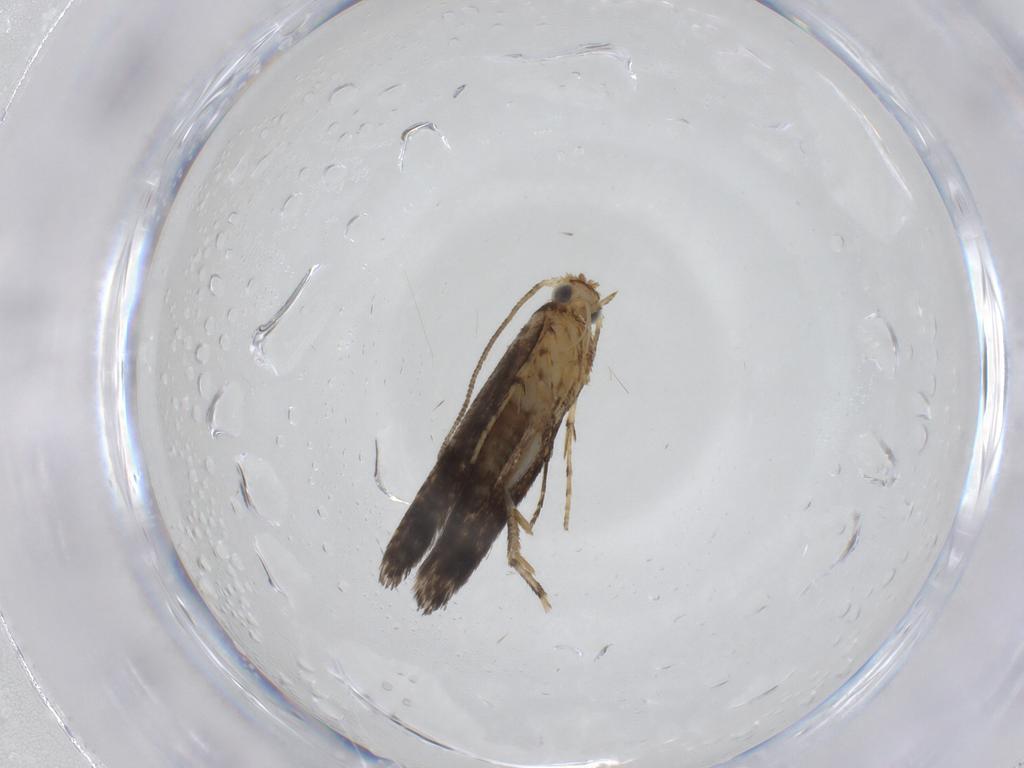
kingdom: Animalia
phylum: Arthropoda
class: Insecta
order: Lepidoptera
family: Argyresthiidae
